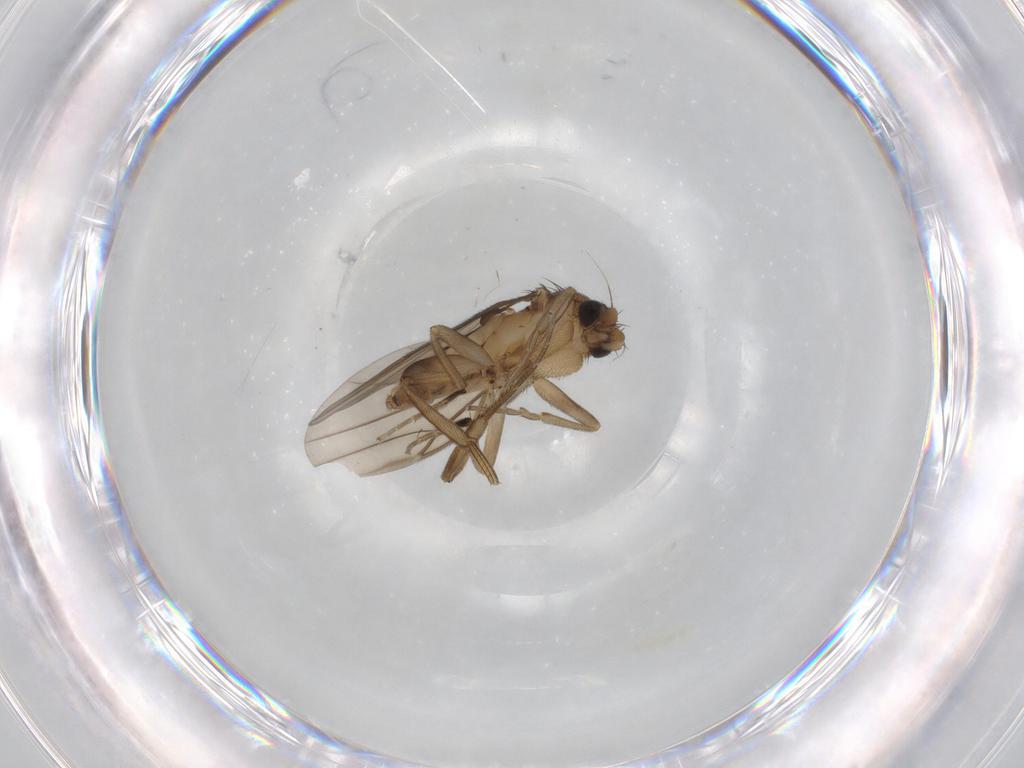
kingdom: Animalia
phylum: Arthropoda
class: Insecta
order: Diptera
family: Phoridae
